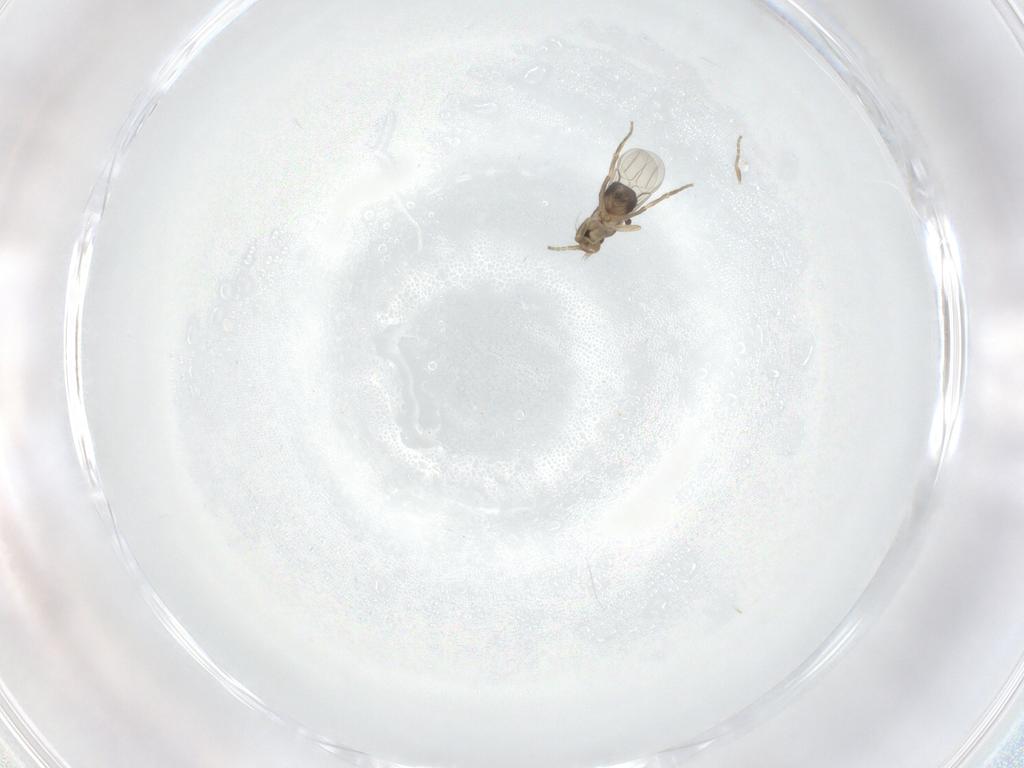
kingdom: Animalia
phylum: Arthropoda
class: Insecta
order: Diptera
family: Phoridae
